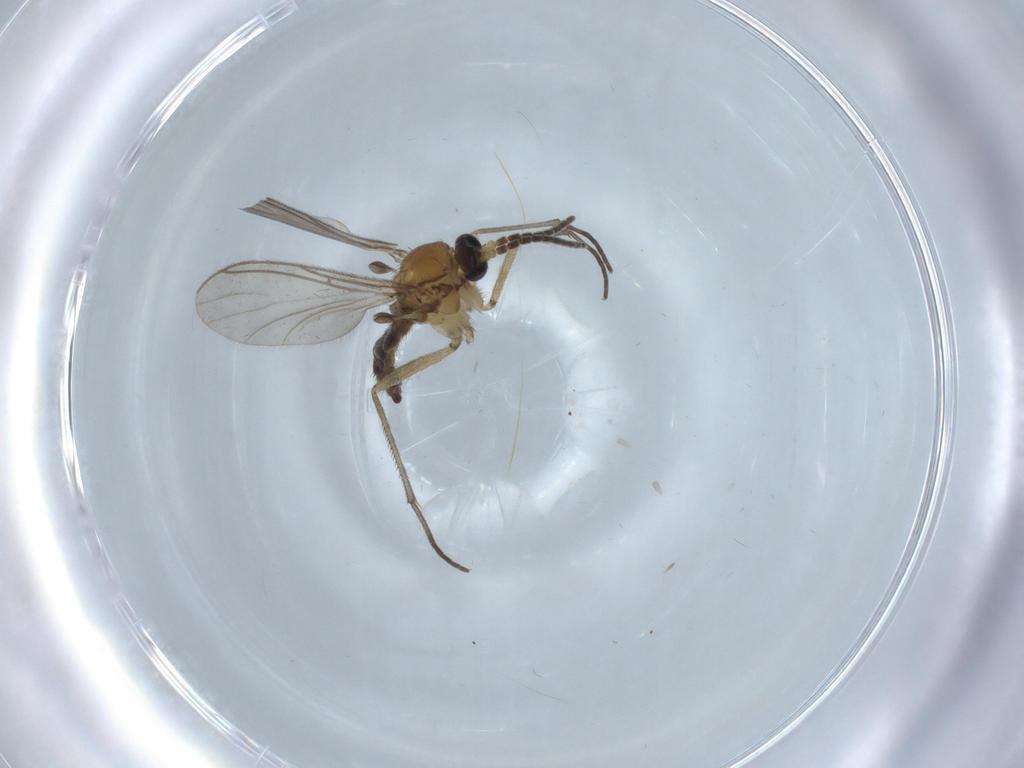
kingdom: Animalia
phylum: Arthropoda
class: Insecta
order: Diptera
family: Sciaridae
